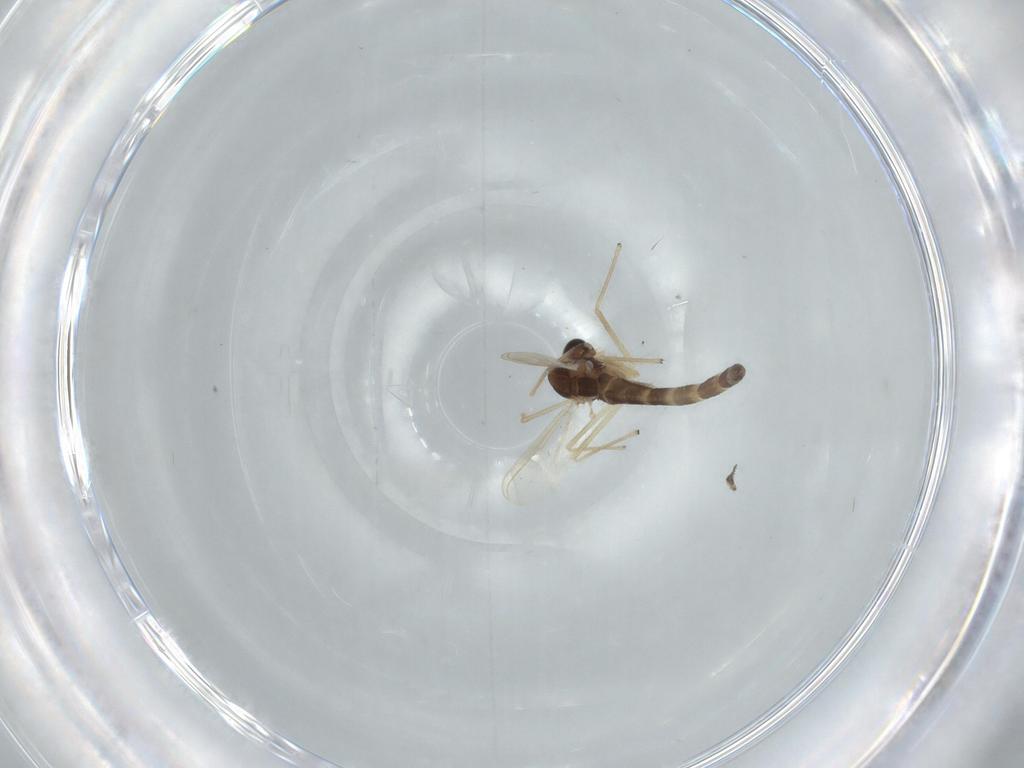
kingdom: Animalia
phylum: Arthropoda
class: Insecta
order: Diptera
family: Chironomidae
